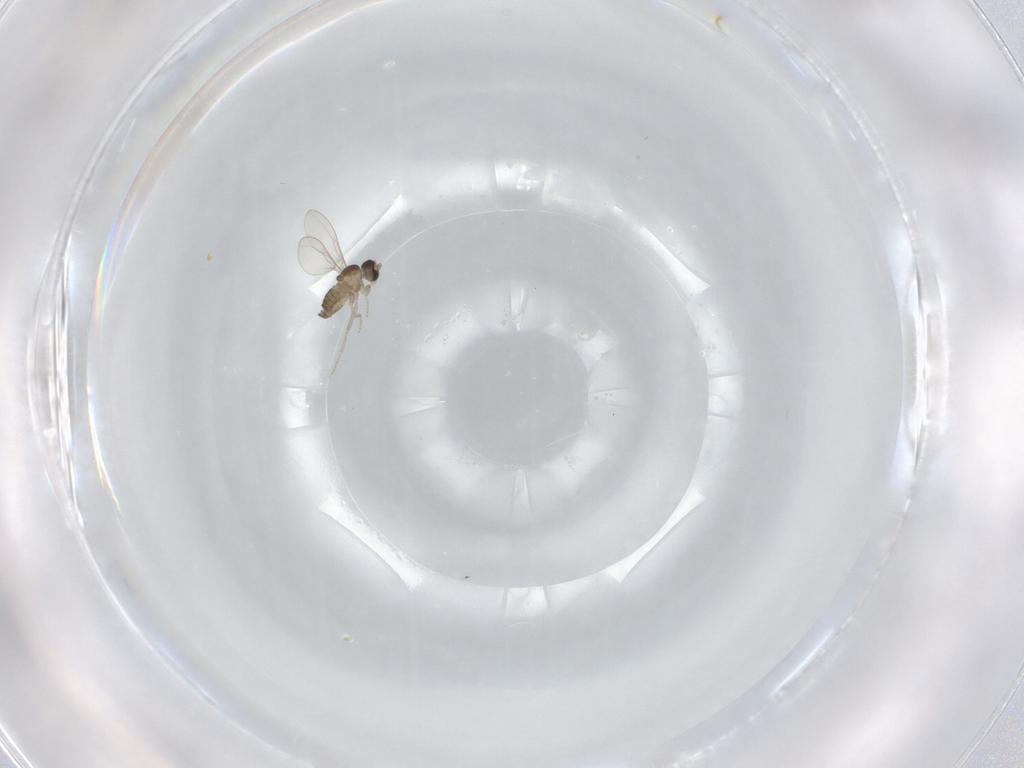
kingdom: Animalia
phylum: Arthropoda
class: Insecta
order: Diptera
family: Cecidomyiidae
